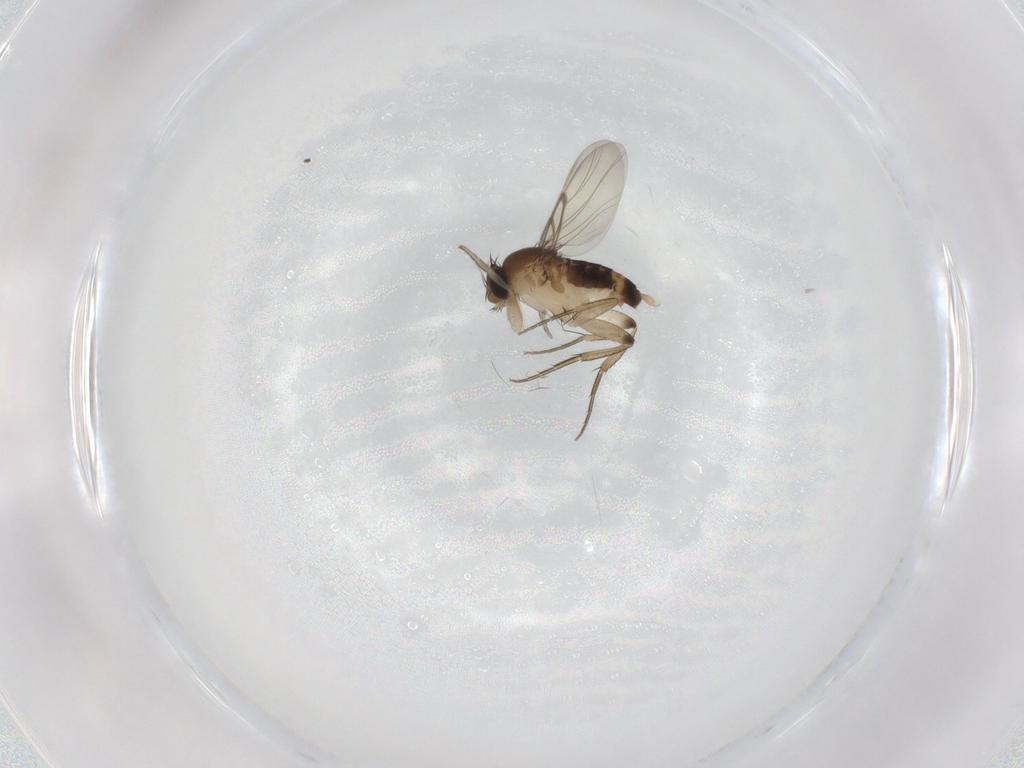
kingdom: Animalia
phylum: Arthropoda
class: Insecta
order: Diptera
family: Phoridae
